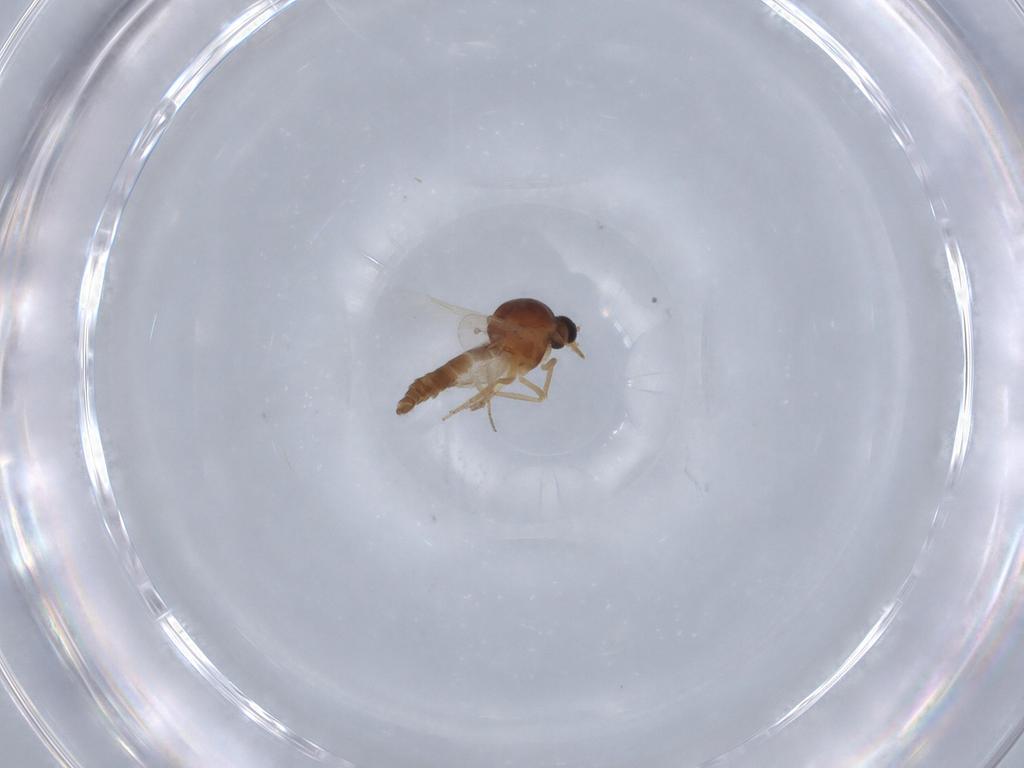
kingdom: Animalia
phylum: Arthropoda
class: Insecta
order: Diptera
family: Ceratopogonidae
